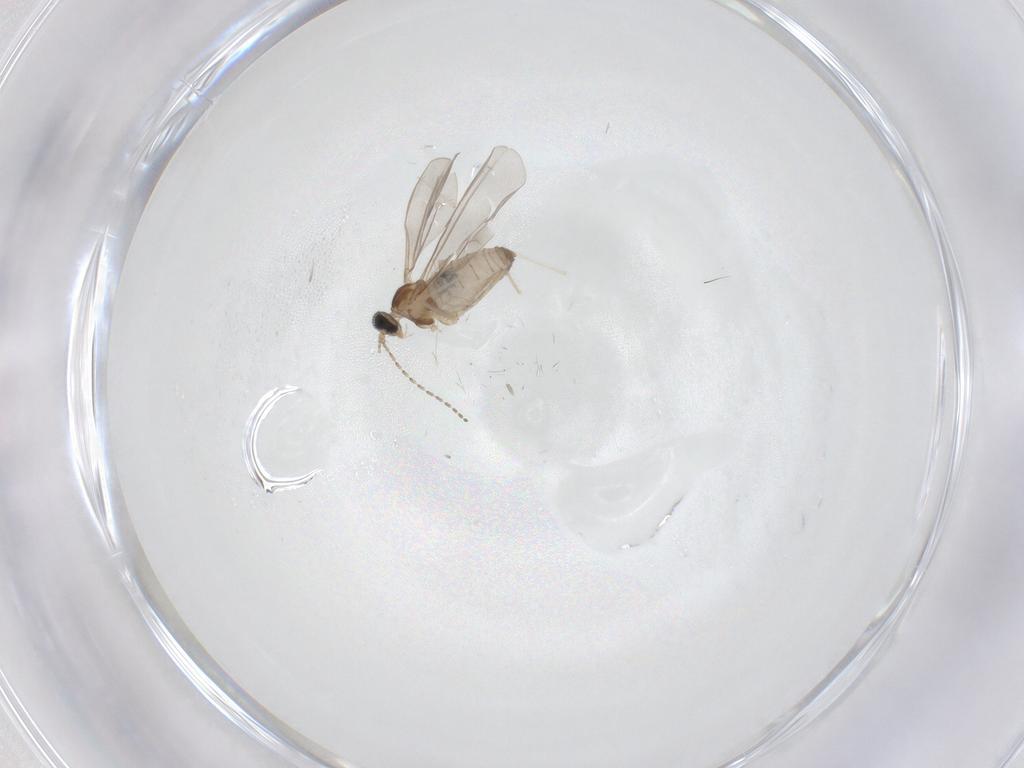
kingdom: Animalia
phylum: Arthropoda
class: Insecta
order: Diptera
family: Cecidomyiidae
